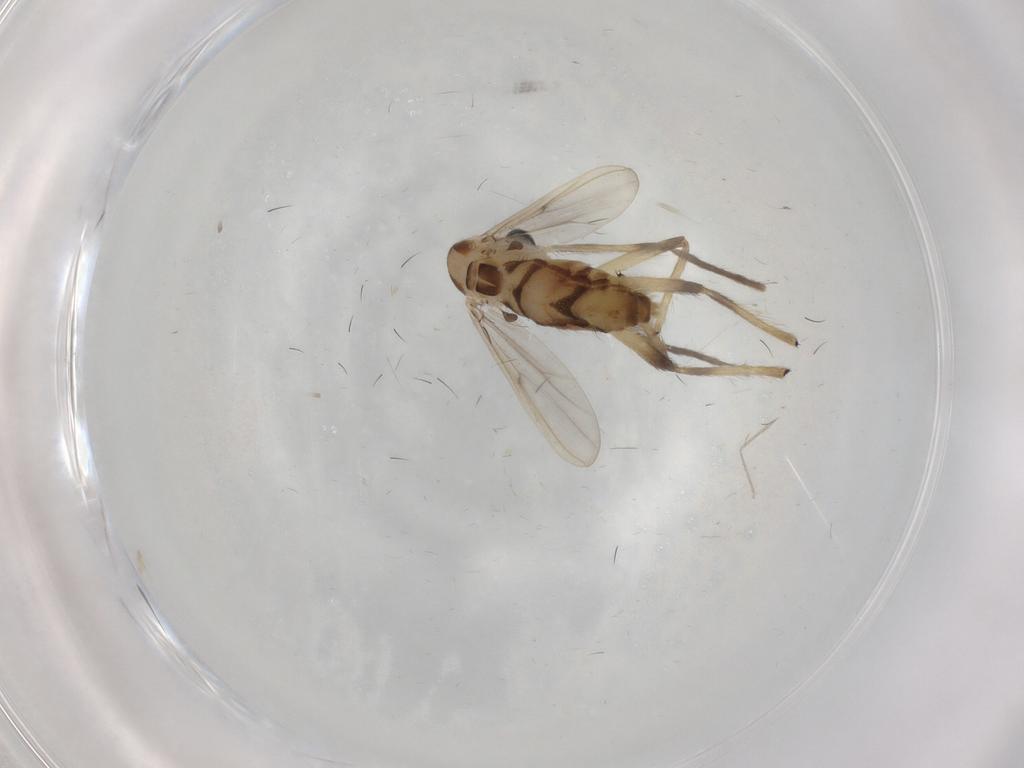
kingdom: Animalia
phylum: Arthropoda
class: Insecta
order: Diptera
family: Chironomidae
